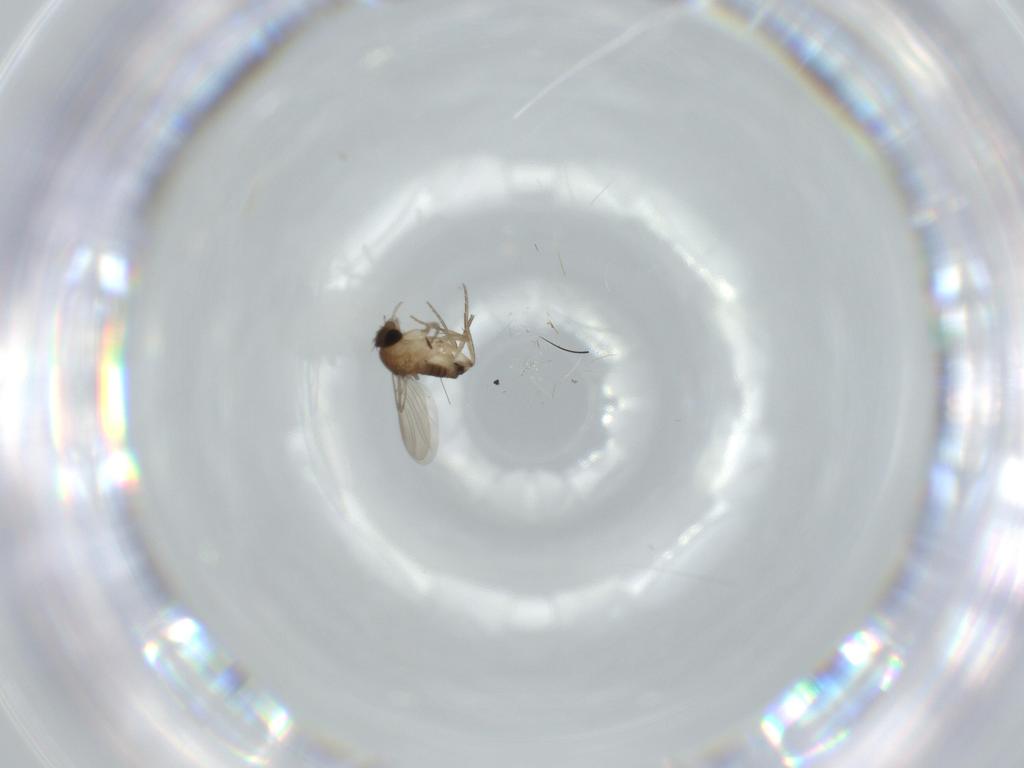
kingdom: Animalia
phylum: Arthropoda
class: Insecta
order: Diptera
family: Phoridae
